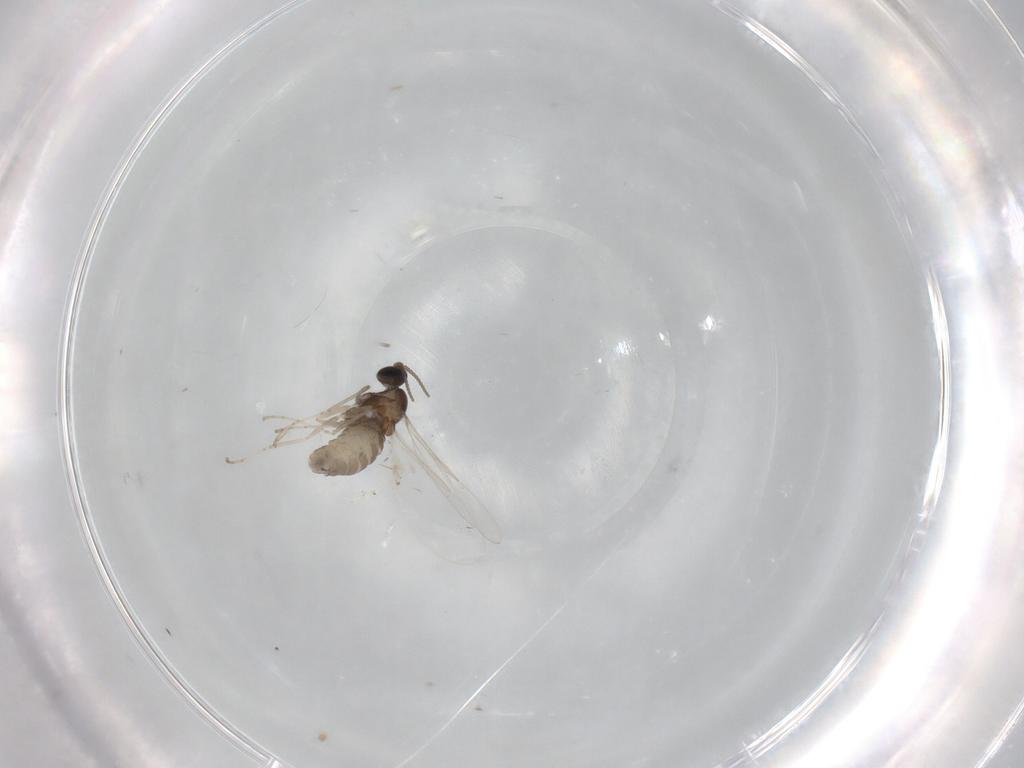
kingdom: Animalia
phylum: Arthropoda
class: Insecta
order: Diptera
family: Cecidomyiidae
